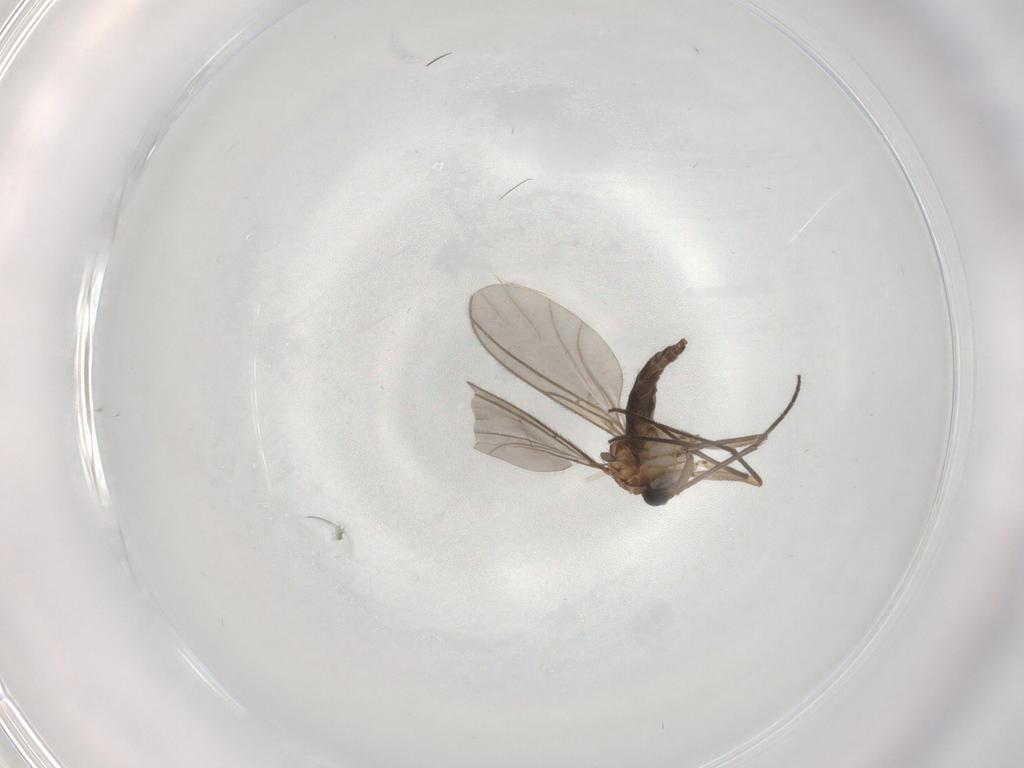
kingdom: Animalia
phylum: Arthropoda
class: Insecta
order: Diptera
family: Sciaridae
